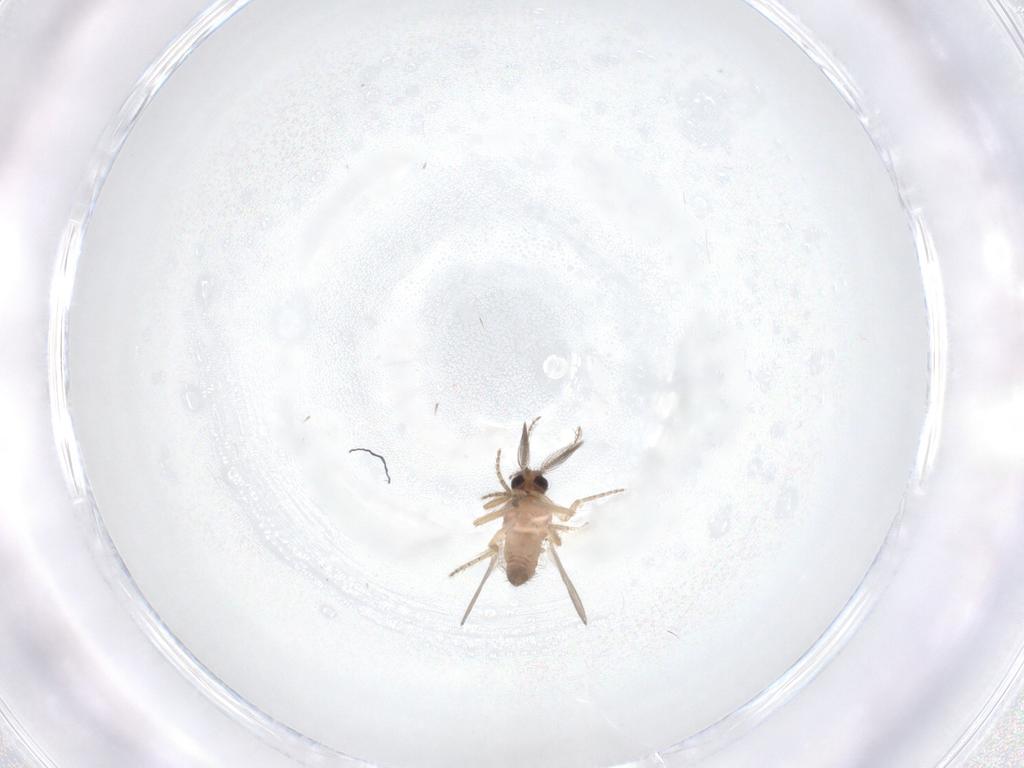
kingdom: Animalia
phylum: Arthropoda
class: Insecta
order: Diptera
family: Ceratopogonidae
